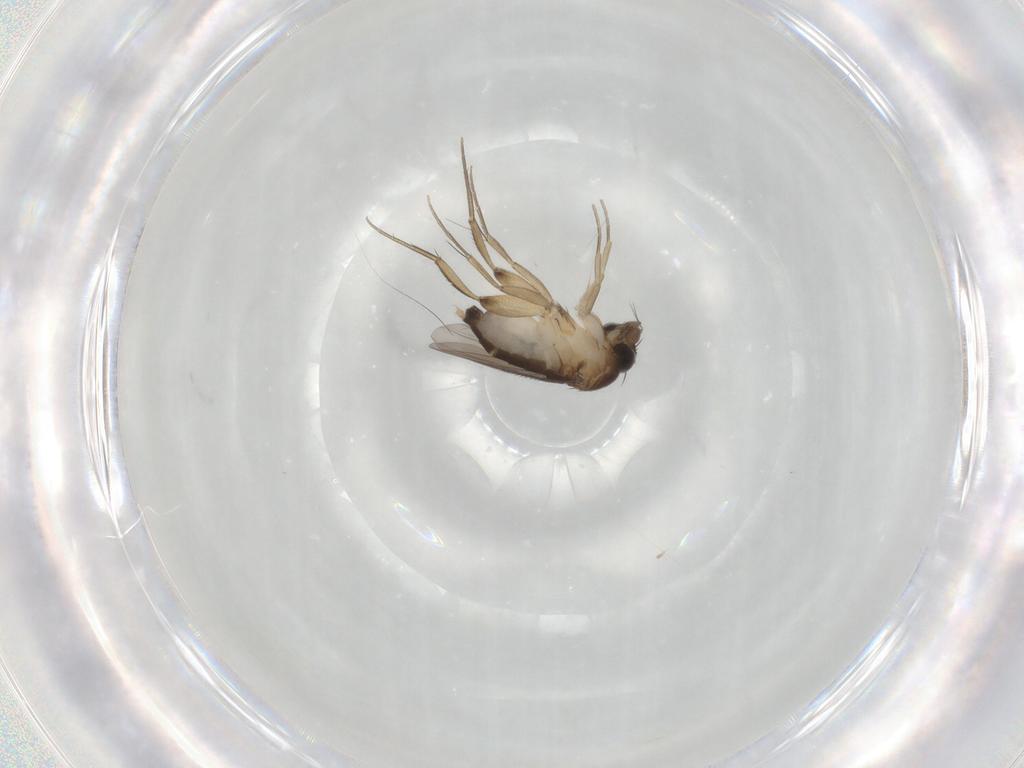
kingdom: Animalia
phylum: Arthropoda
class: Insecta
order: Diptera
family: Phoridae
